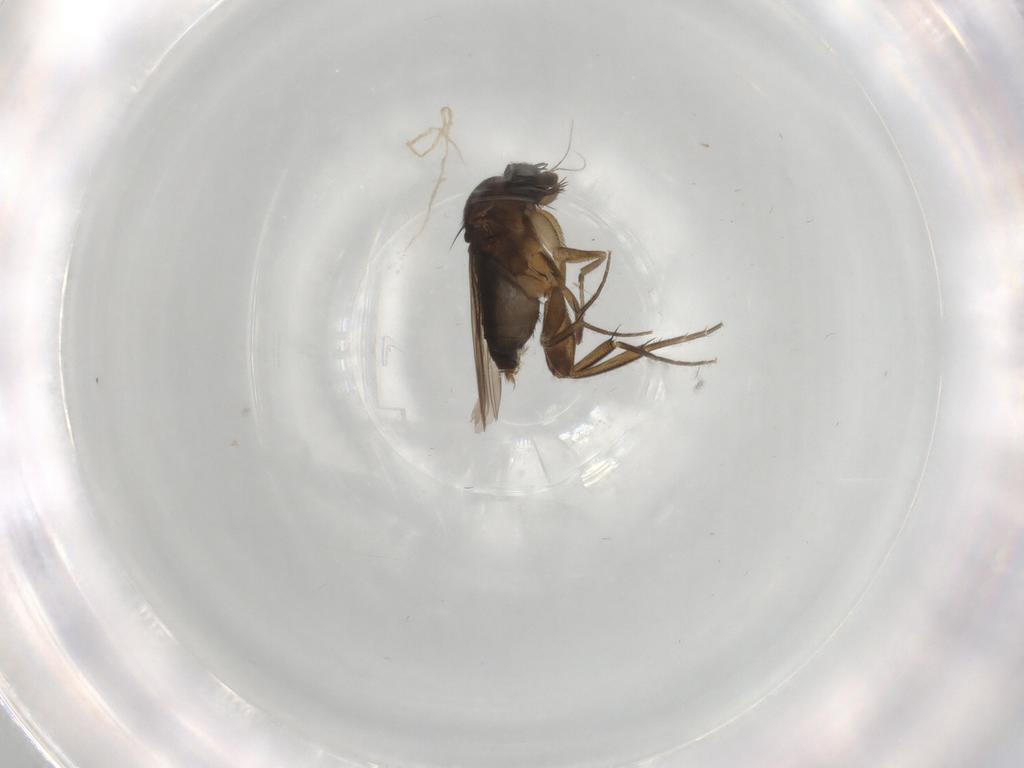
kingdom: Animalia
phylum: Arthropoda
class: Insecta
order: Diptera
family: Phoridae
